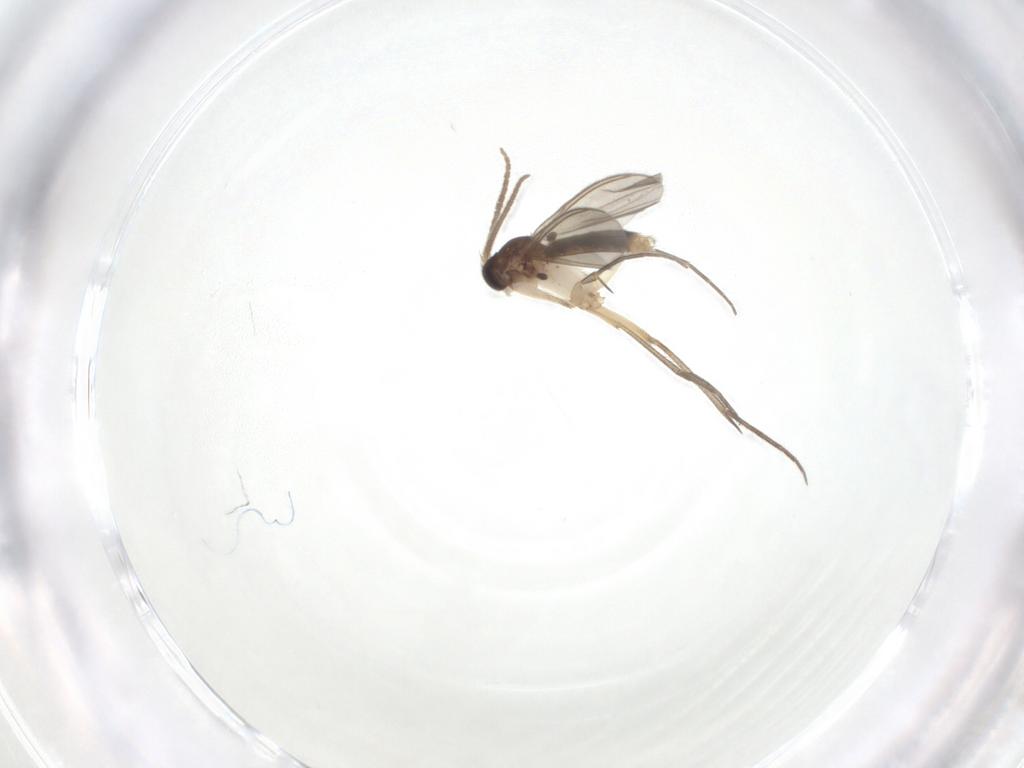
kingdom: Animalia
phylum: Arthropoda
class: Insecta
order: Diptera
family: Mycetophilidae
